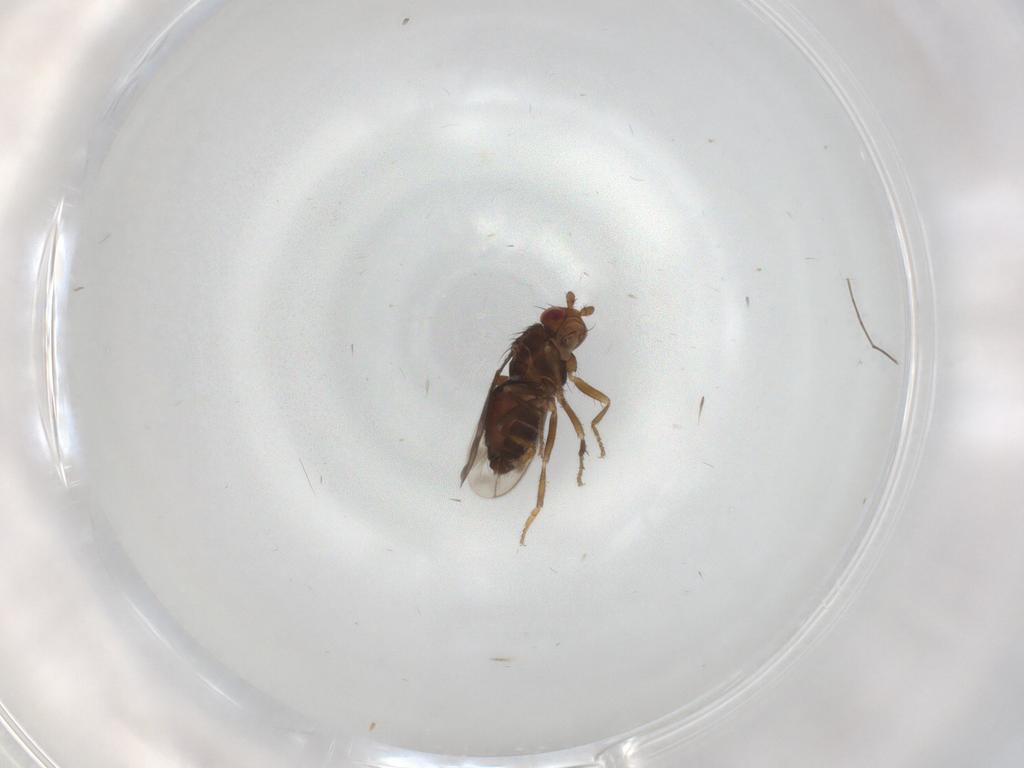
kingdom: Animalia
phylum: Arthropoda
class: Insecta
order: Diptera
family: Sphaeroceridae
